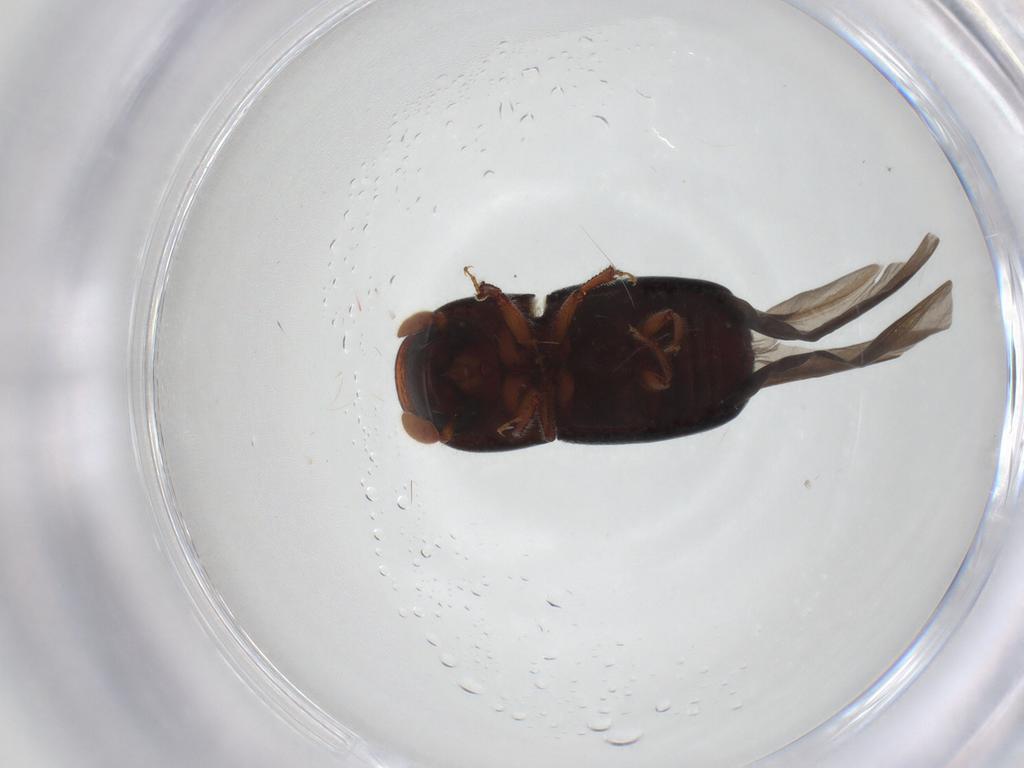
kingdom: Animalia
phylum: Arthropoda
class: Insecta
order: Coleoptera
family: Curculionidae
